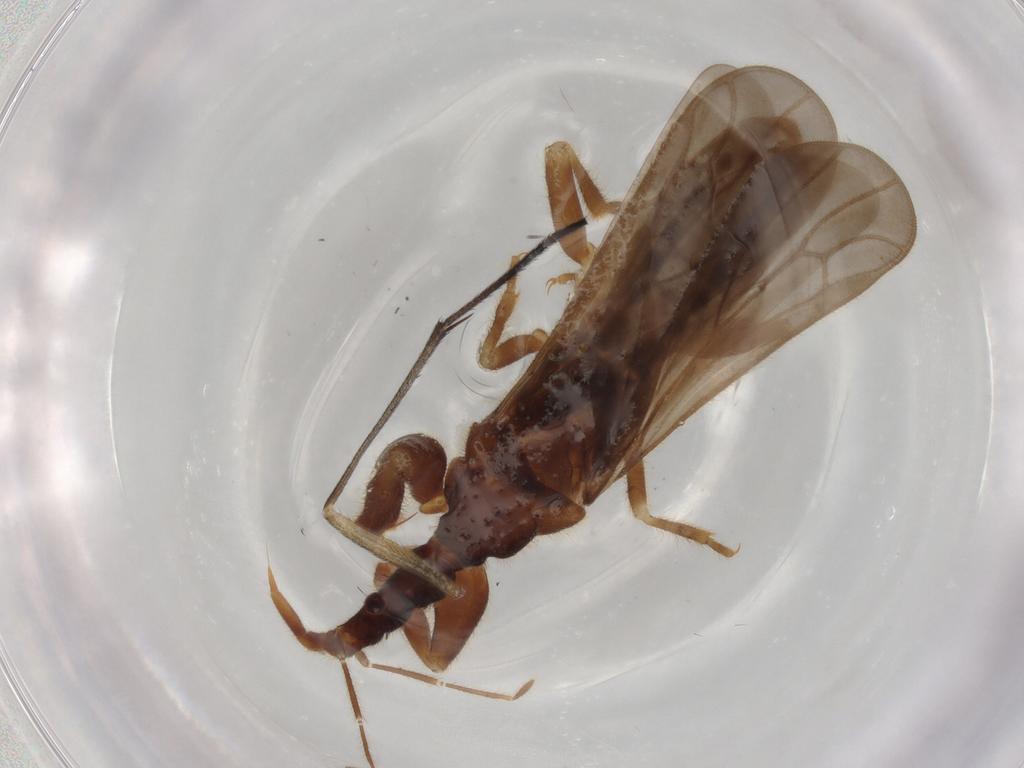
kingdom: Animalia
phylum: Arthropoda
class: Insecta
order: Hemiptera
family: Enicocephalidae
